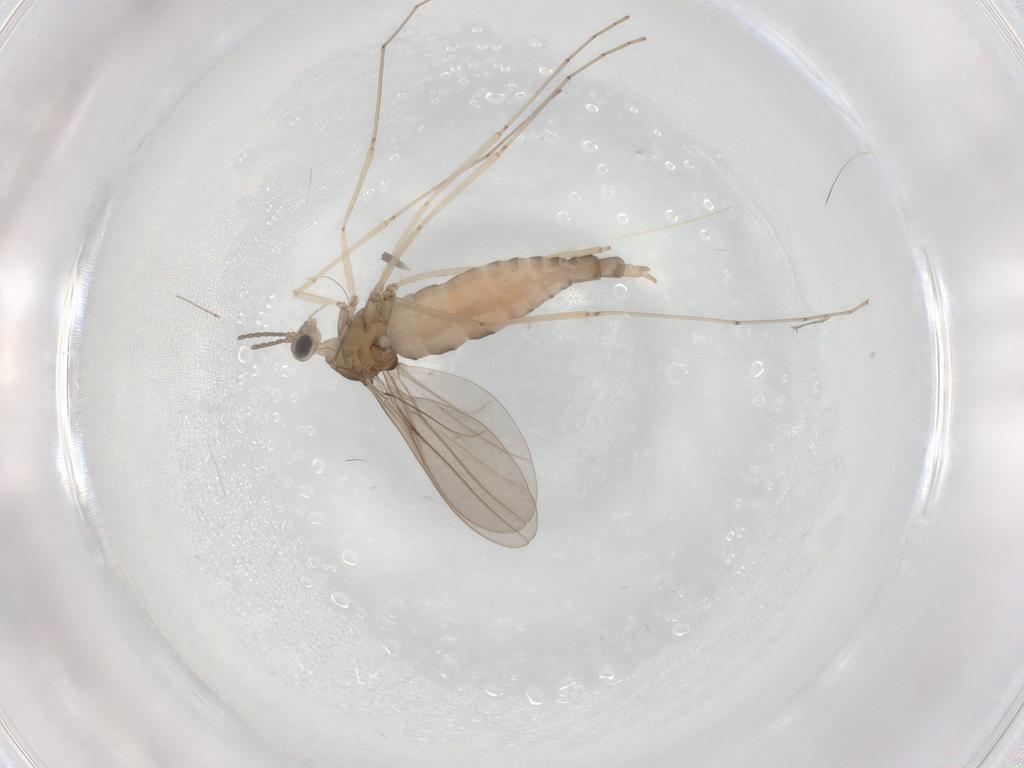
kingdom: Animalia
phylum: Arthropoda
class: Insecta
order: Diptera
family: Cecidomyiidae
